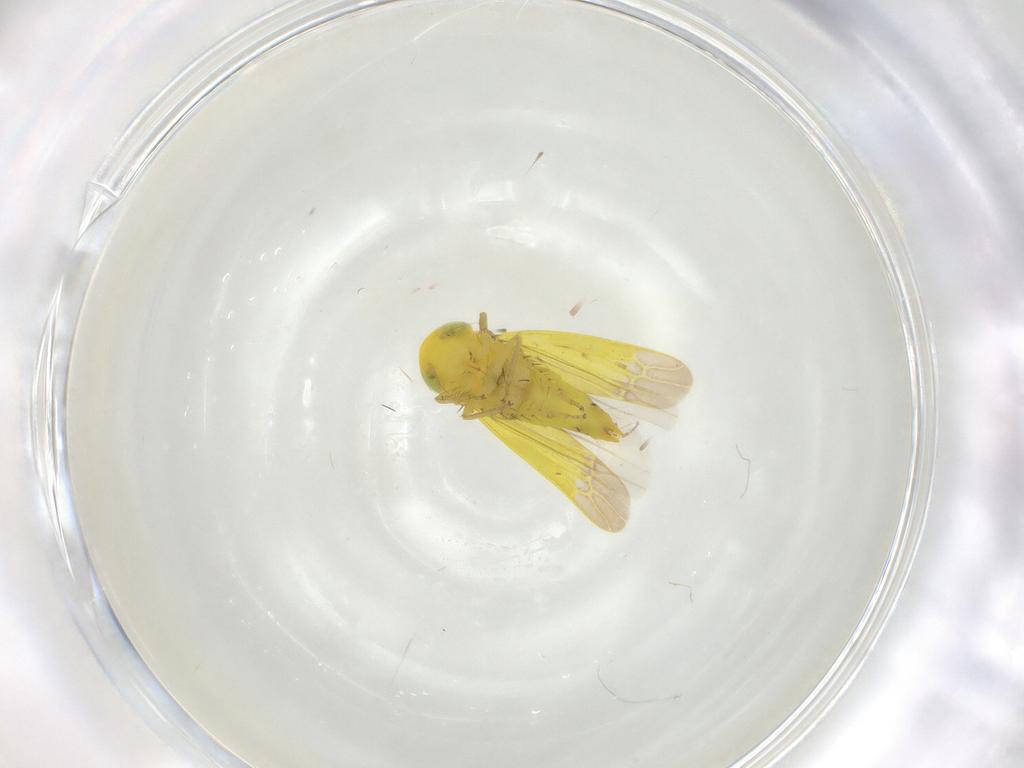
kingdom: Animalia
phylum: Arthropoda
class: Insecta
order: Hemiptera
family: Cicadellidae
